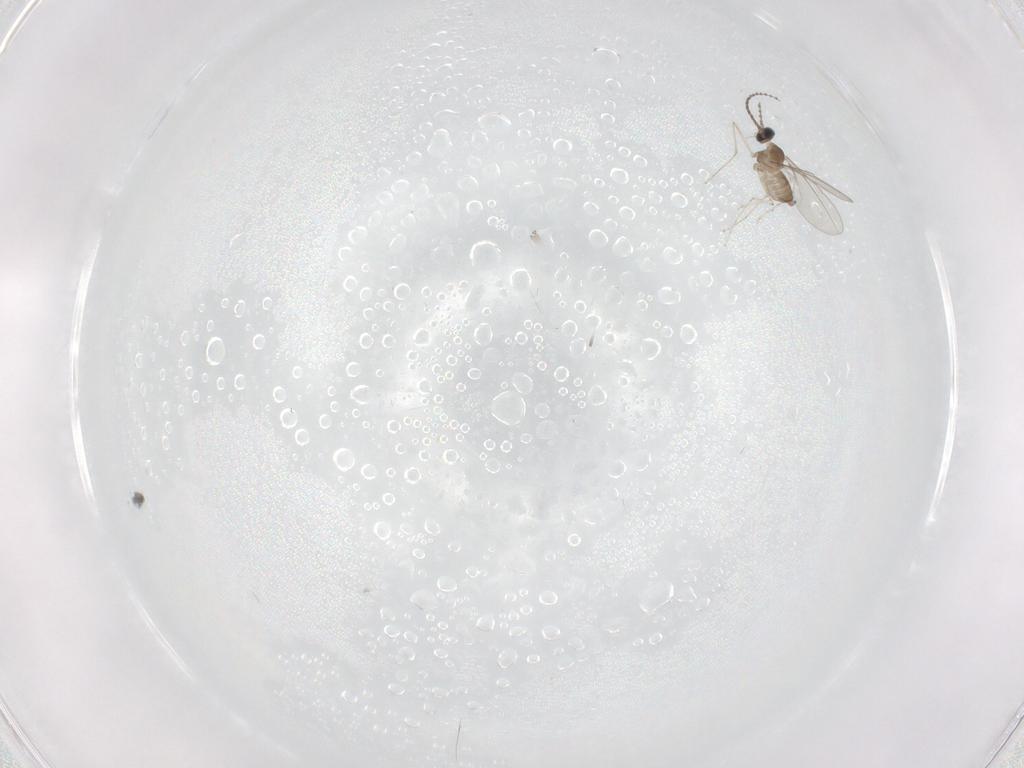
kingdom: Animalia
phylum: Arthropoda
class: Insecta
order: Diptera
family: Cecidomyiidae
